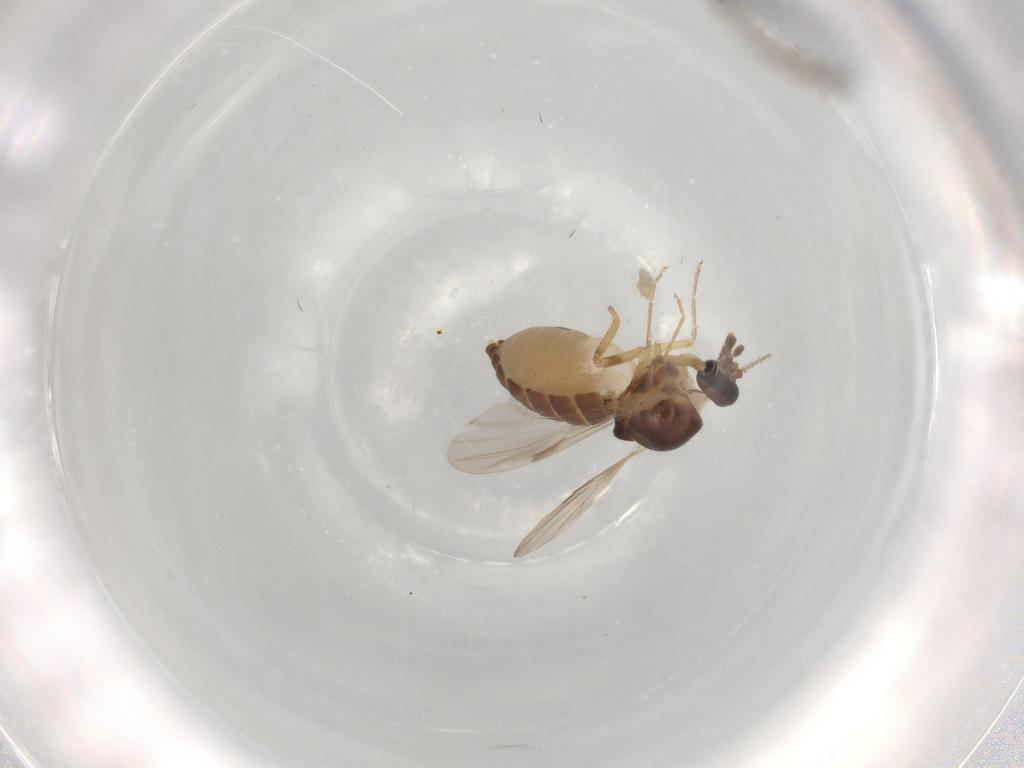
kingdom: Animalia
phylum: Arthropoda
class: Insecta
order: Diptera
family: Ceratopogonidae
